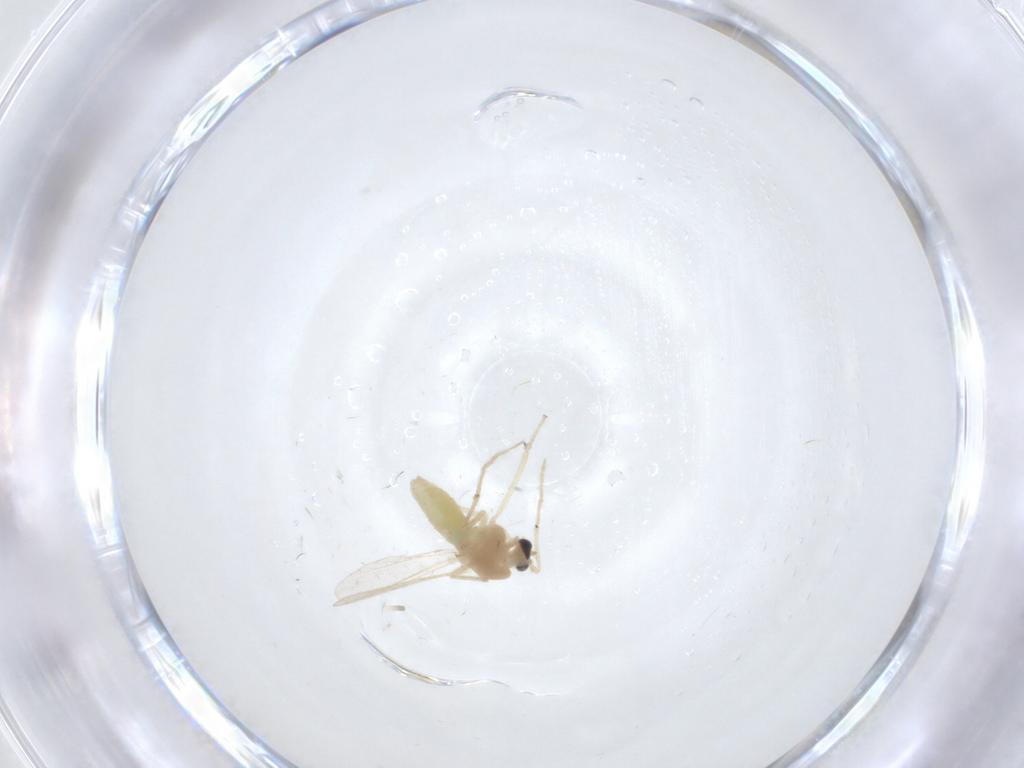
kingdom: Animalia
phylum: Arthropoda
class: Insecta
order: Diptera
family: Chironomidae
